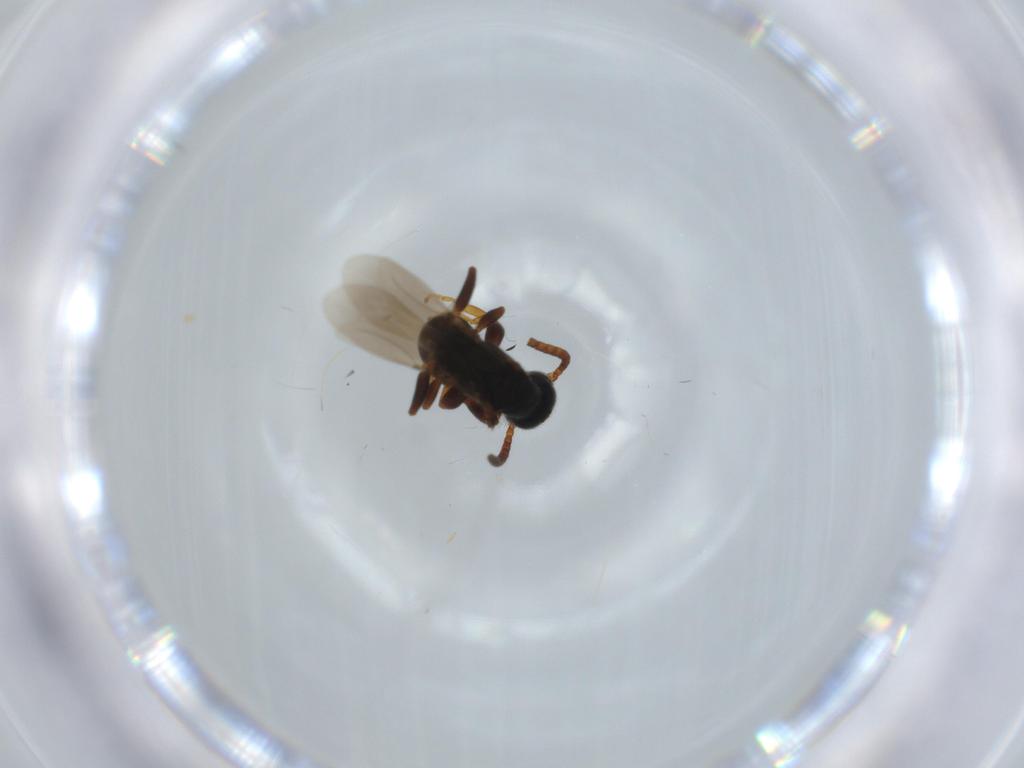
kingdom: Animalia
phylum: Arthropoda
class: Insecta
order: Hymenoptera
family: Bethylidae
